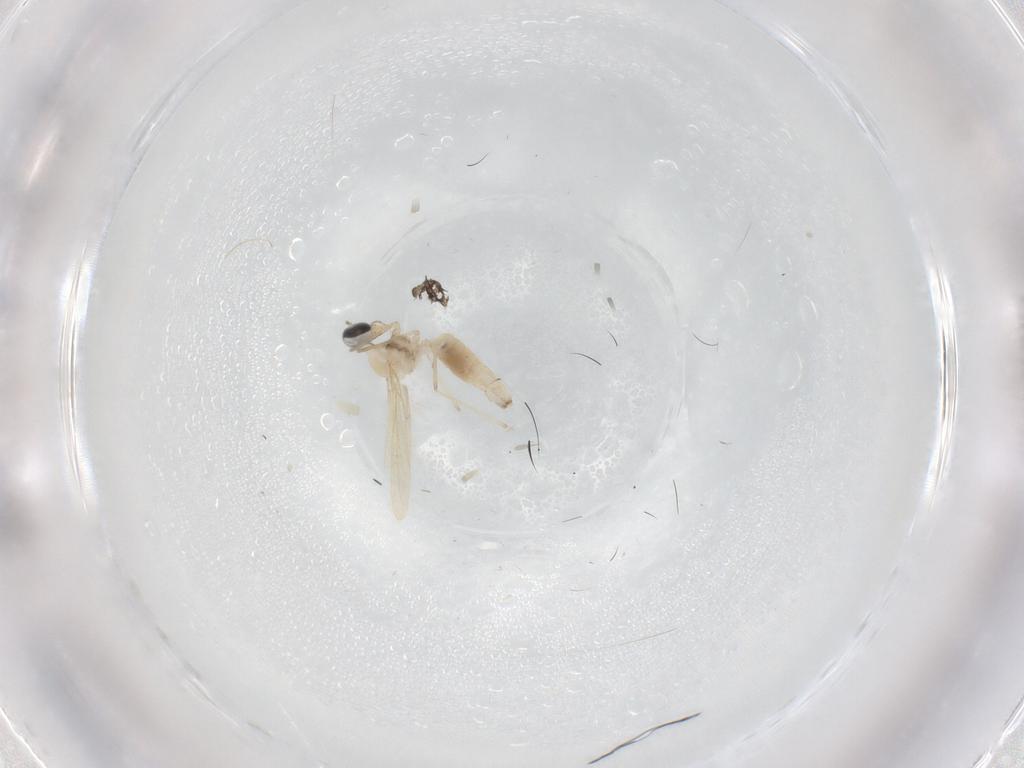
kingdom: Animalia
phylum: Arthropoda
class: Insecta
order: Diptera
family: Cecidomyiidae
